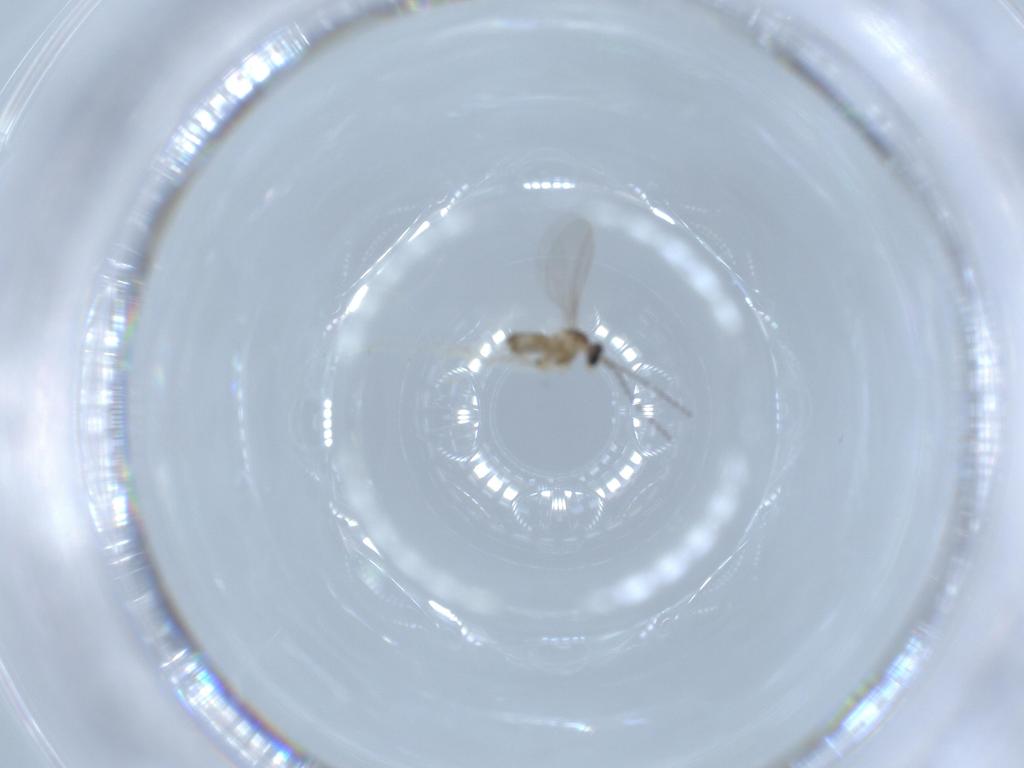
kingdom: Animalia
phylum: Arthropoda
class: Insecta
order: Diptera
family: Cecidomyiidae
